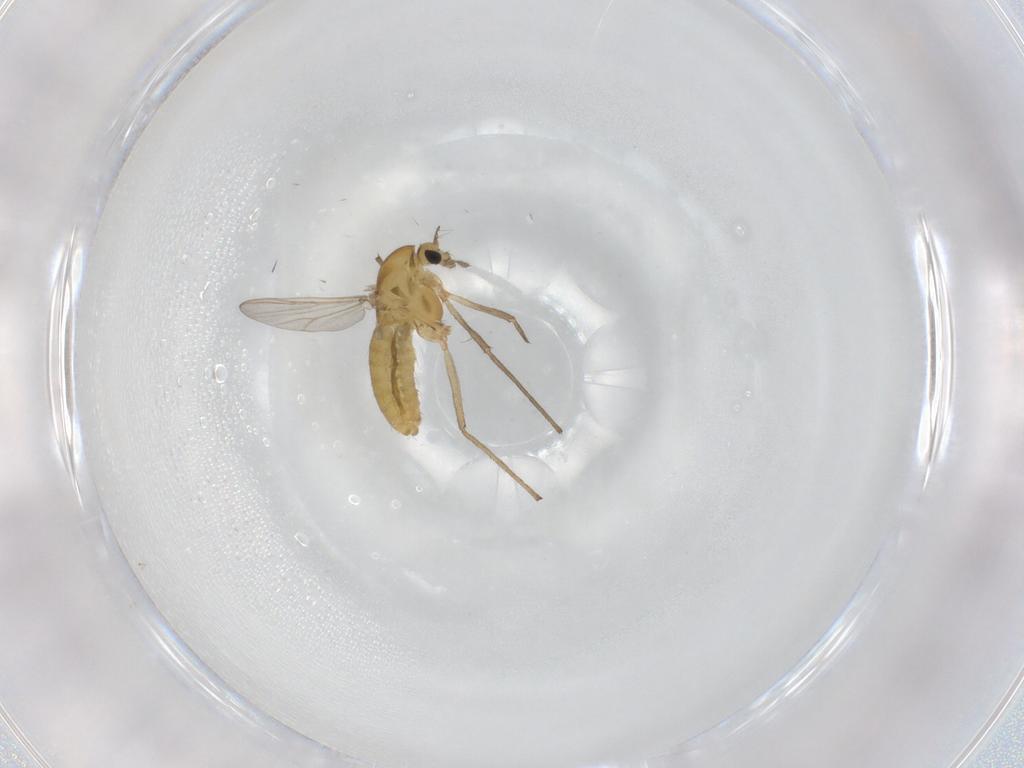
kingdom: Animalia
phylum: Arthropoda
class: Insecta
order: Diptera
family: Chironomidae
